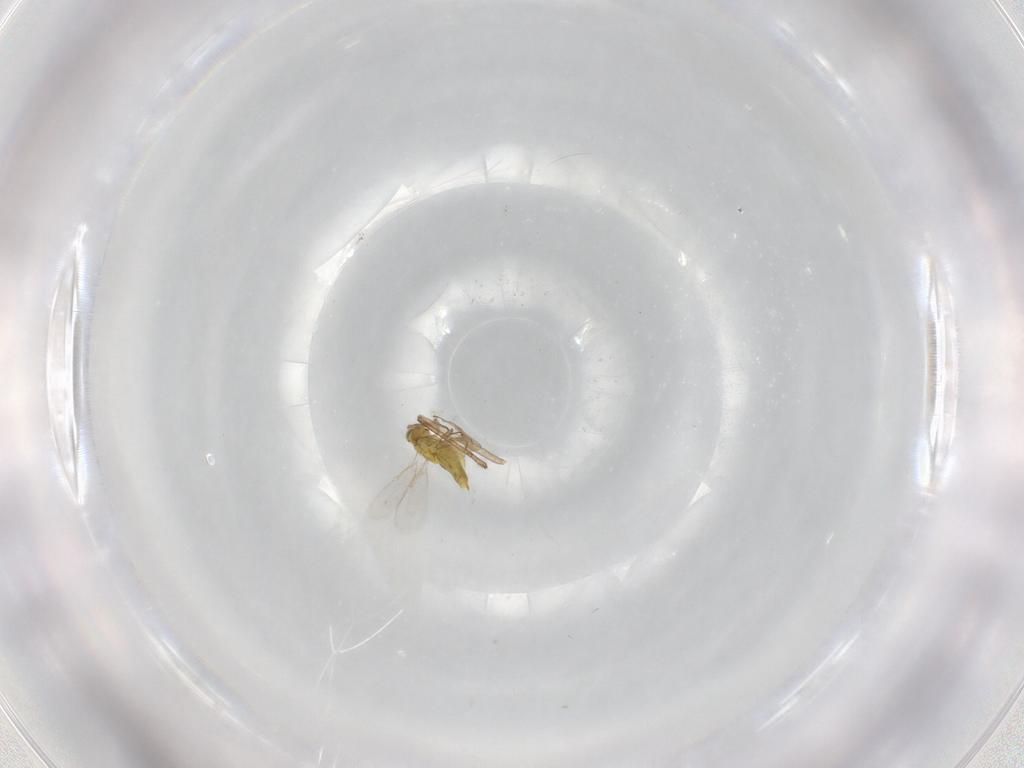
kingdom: Animalia
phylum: Arthropoda
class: Insecta
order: Hymenoptera
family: Aphelinidae
